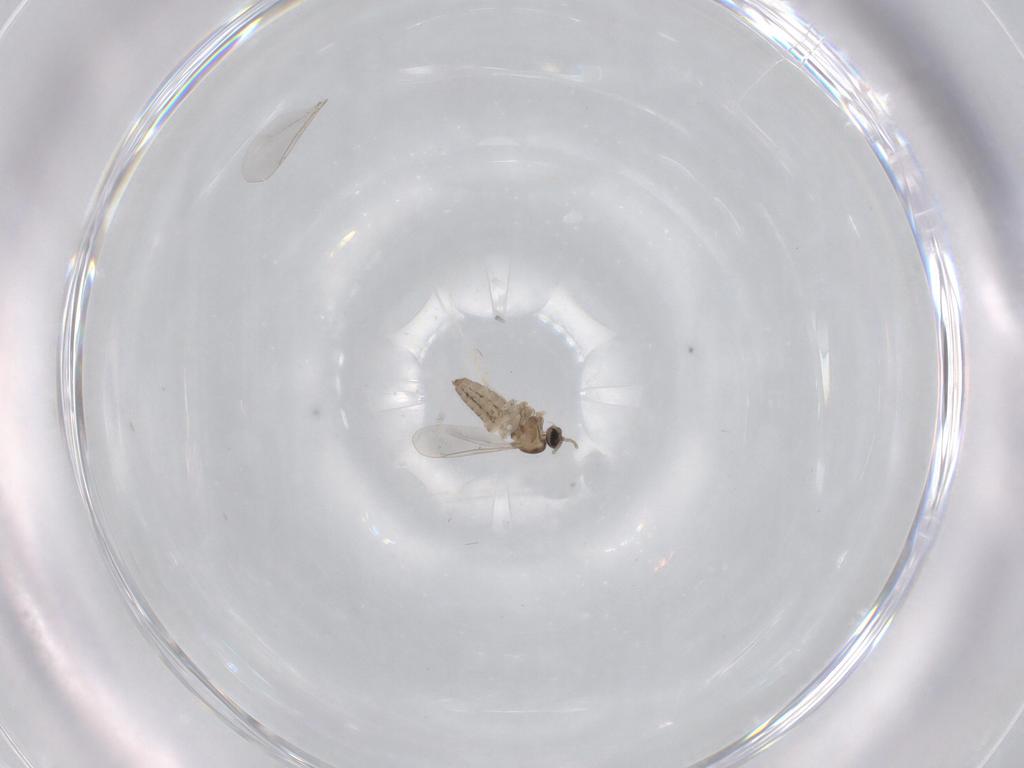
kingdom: Animalia
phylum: Arthropoda
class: Insecta
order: Diptera
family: Cecidomyiidae
